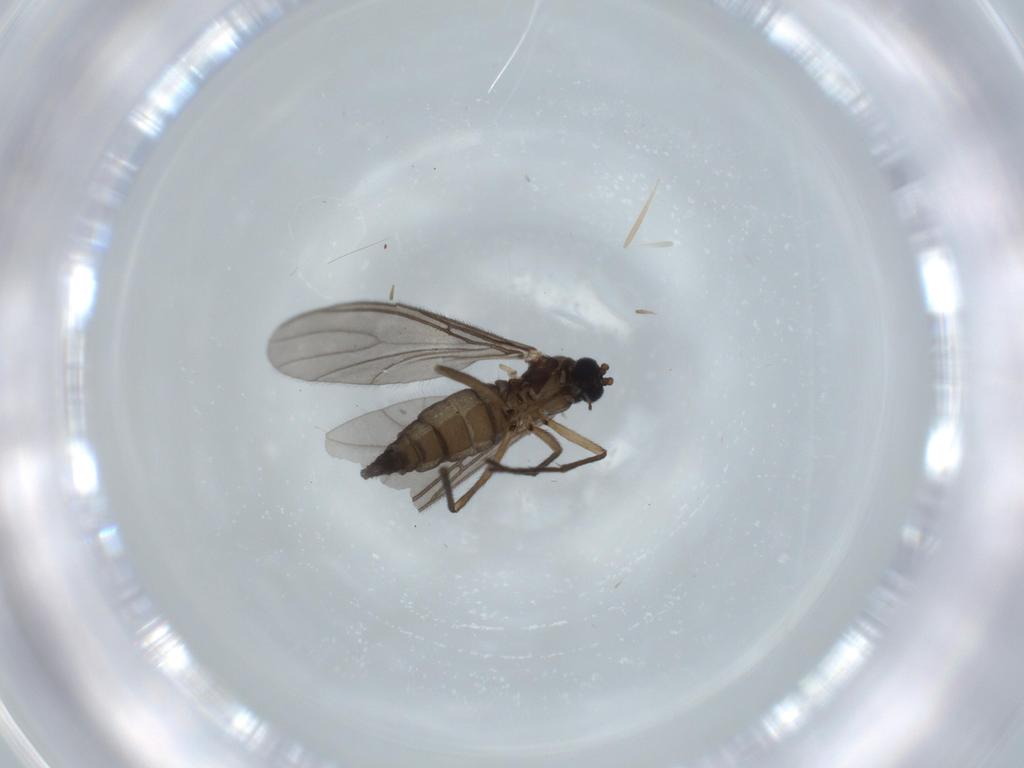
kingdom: Animalia
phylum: Arthropoda
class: Insecta
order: Diptera
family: Sciaridae
